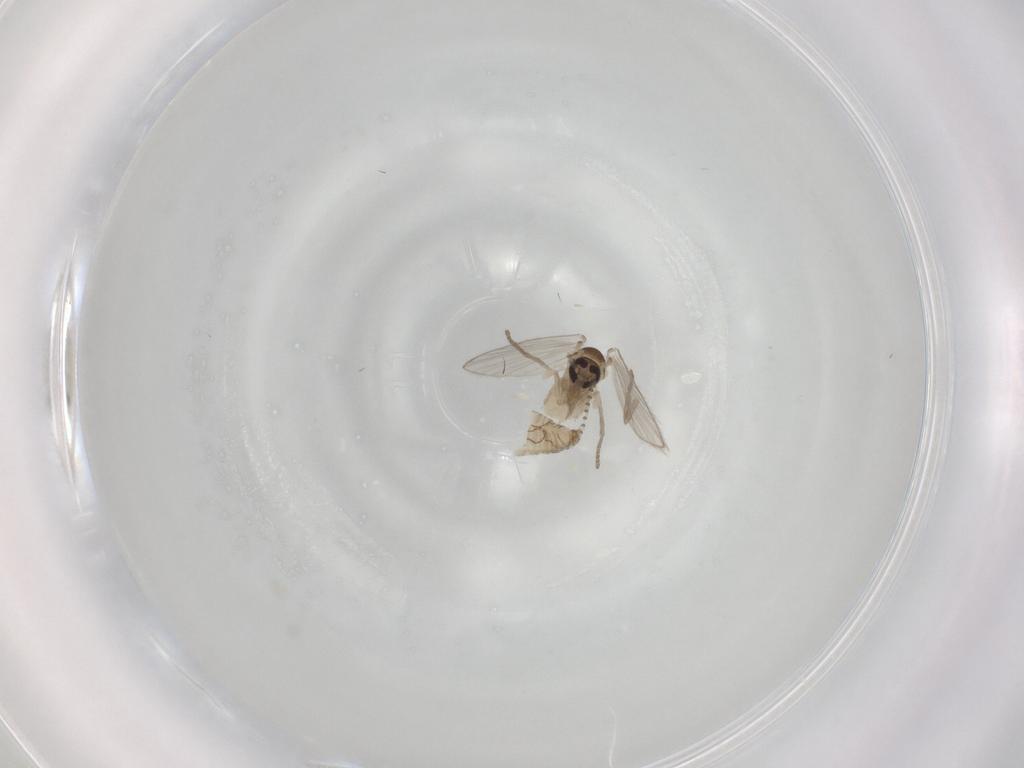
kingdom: Animalia
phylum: Arthropoda
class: Insecta
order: Diptera
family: Psychodidae
